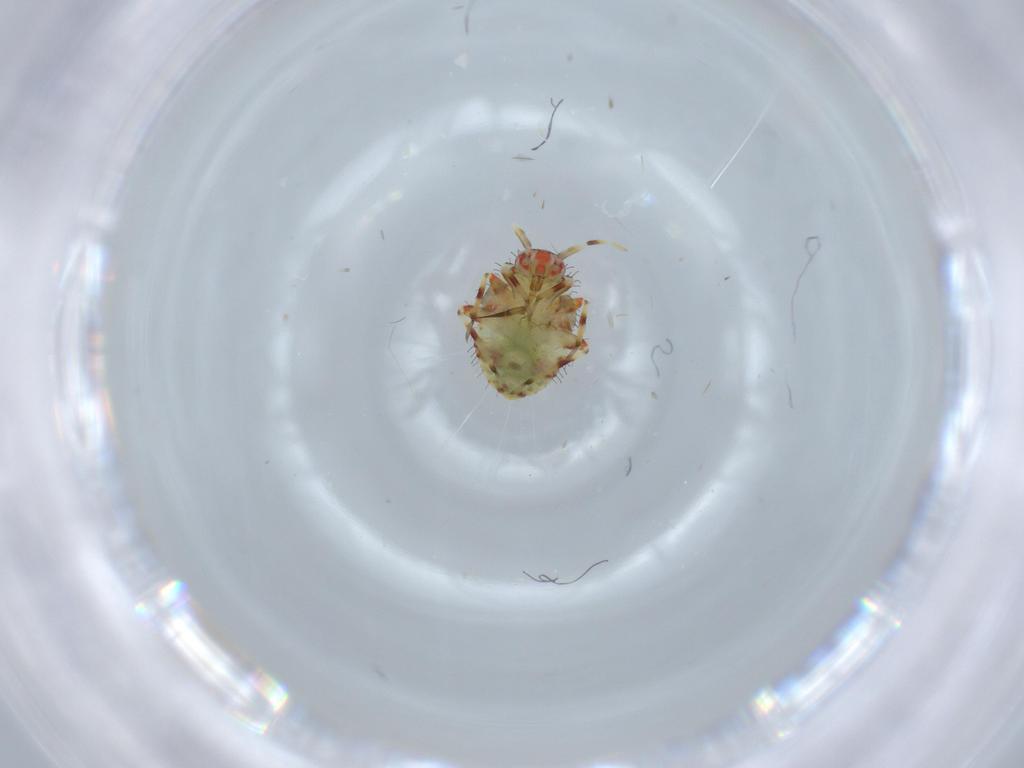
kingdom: Animalia
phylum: Arthropoda
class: Insecta
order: Hemiptera
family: Miridae
